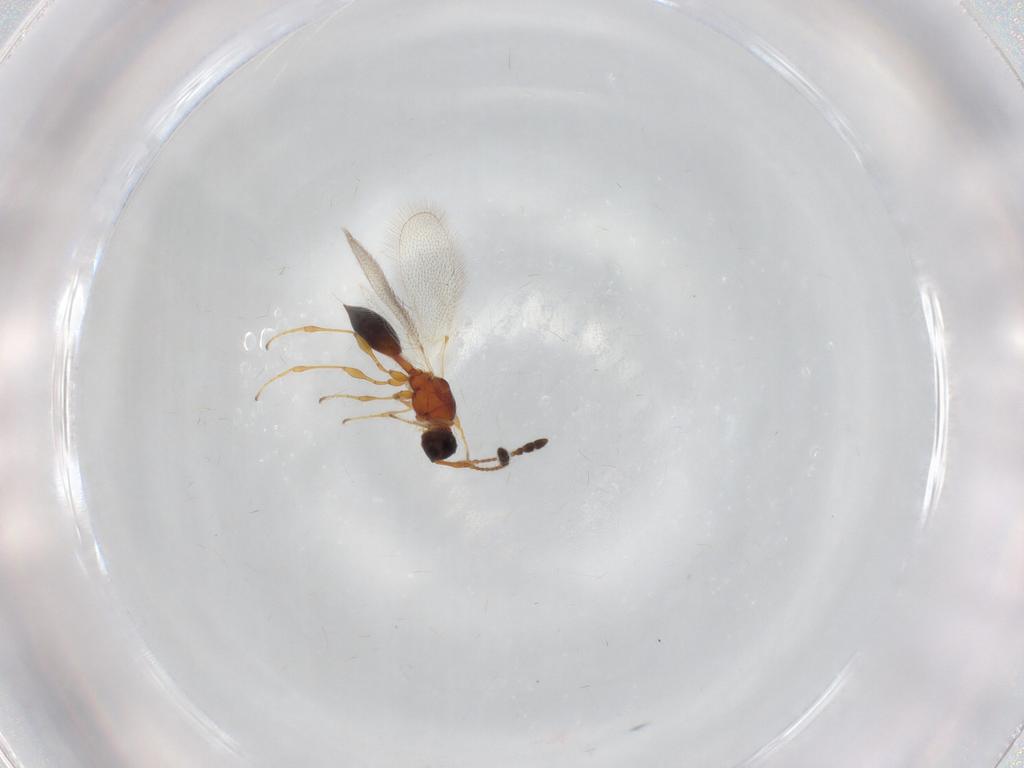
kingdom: Animalia
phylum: Arthropoda
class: Insecta
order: Hymenoptera
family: Diapriidae
